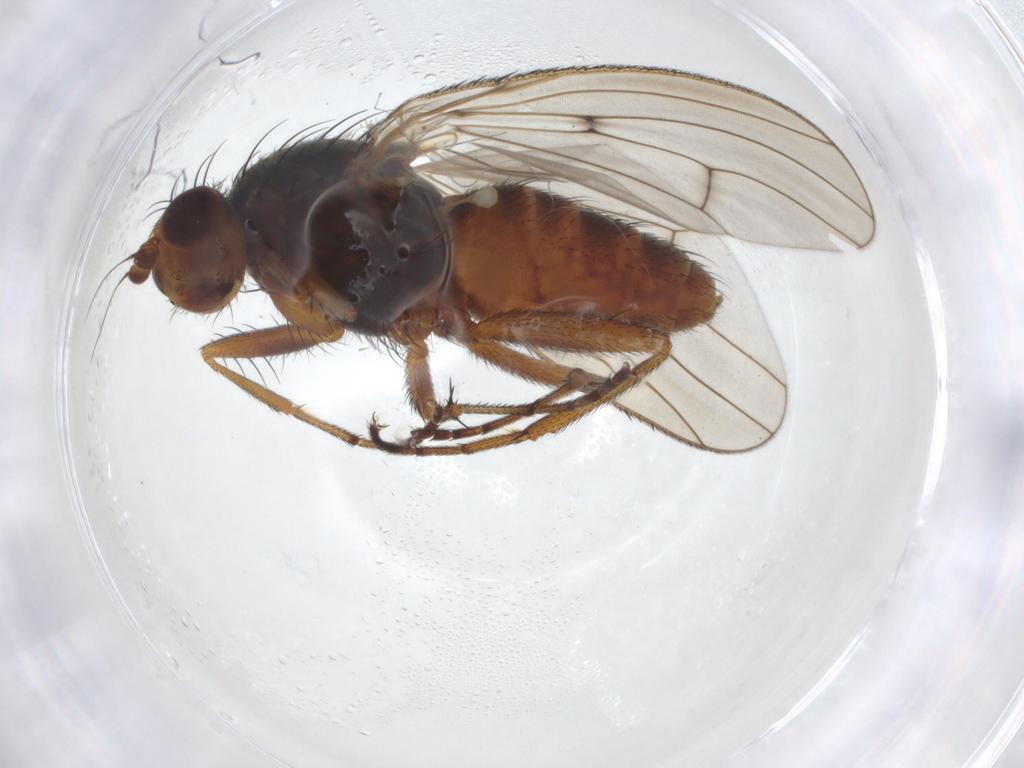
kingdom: Animalia
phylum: Arthropoda
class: Insecta
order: Diptera
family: Heleomyzidae
